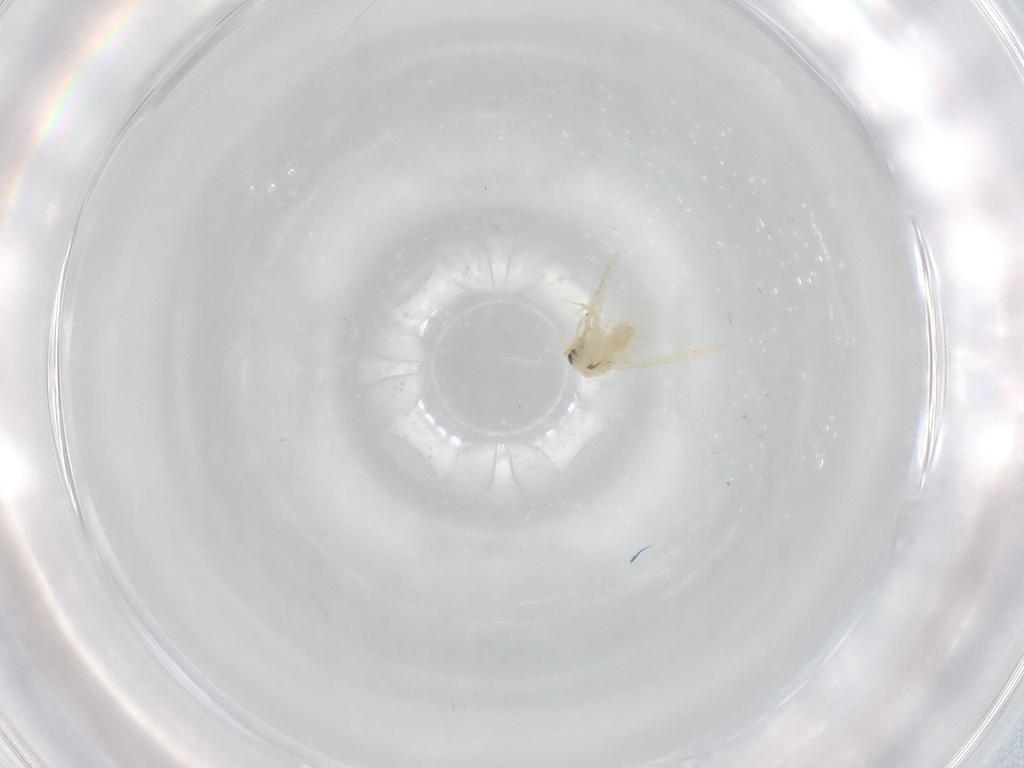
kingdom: Animalia
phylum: Arthropoda
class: Insecta
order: Hemiptera
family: Aleyrodidae
